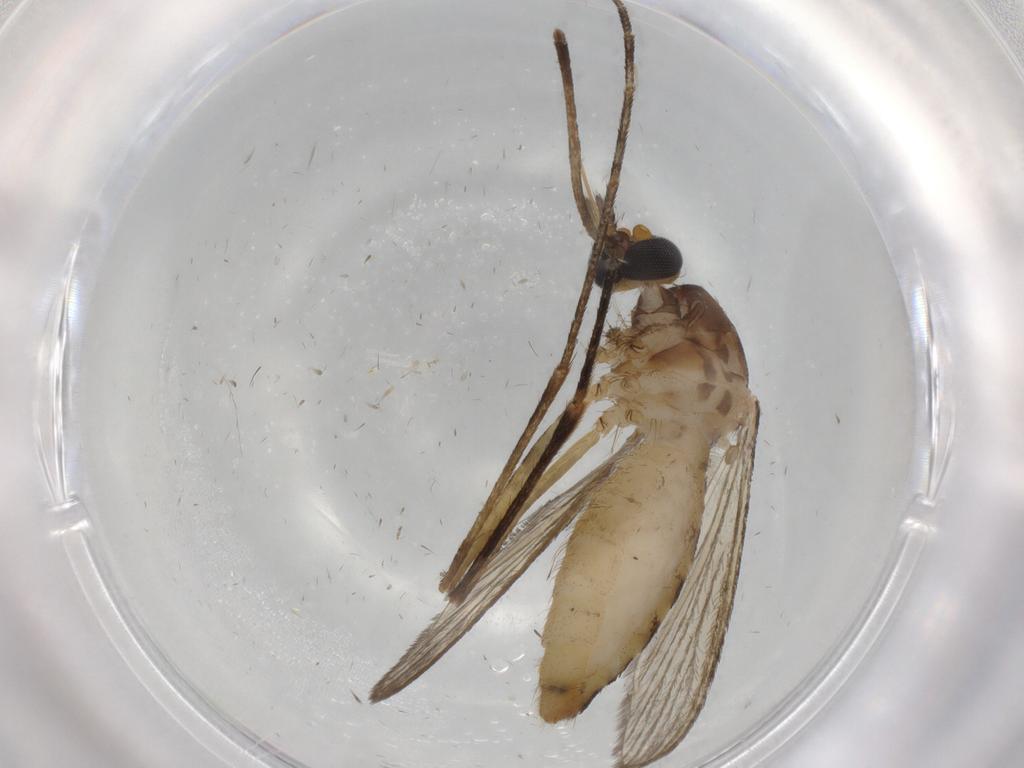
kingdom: Animalia
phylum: Arthropoda
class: Insecta
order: Diptera
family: Culicidae
